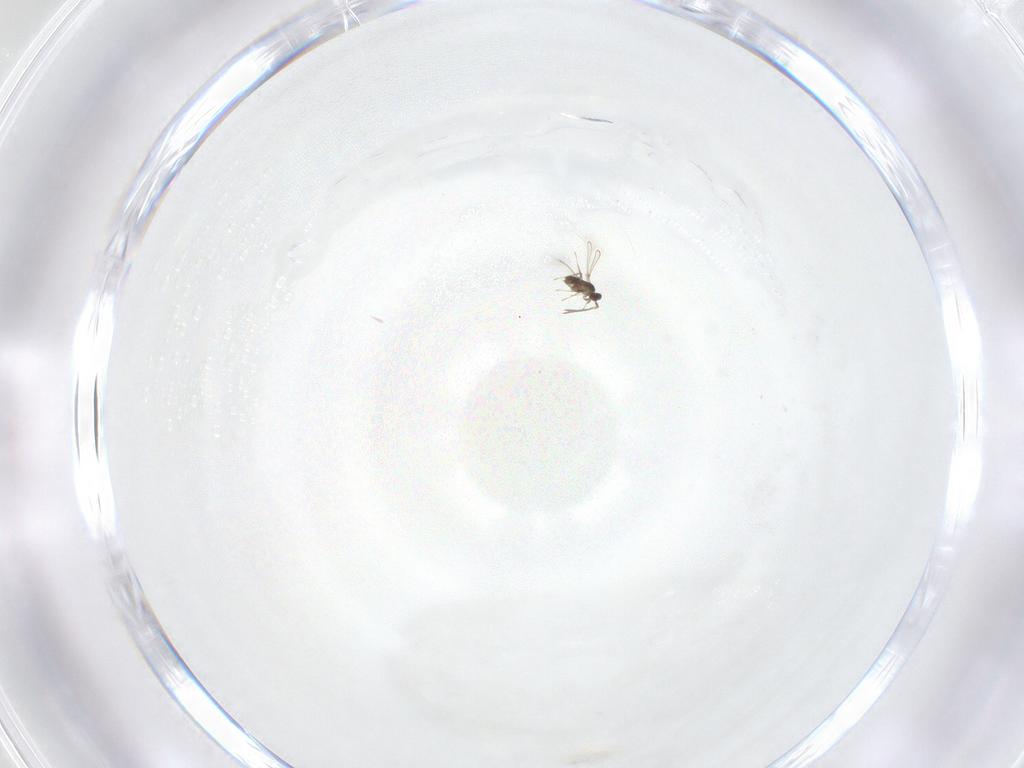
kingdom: Animalia
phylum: Arthropoda
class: Insecta
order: Hymenoptera
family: Mymaridae
